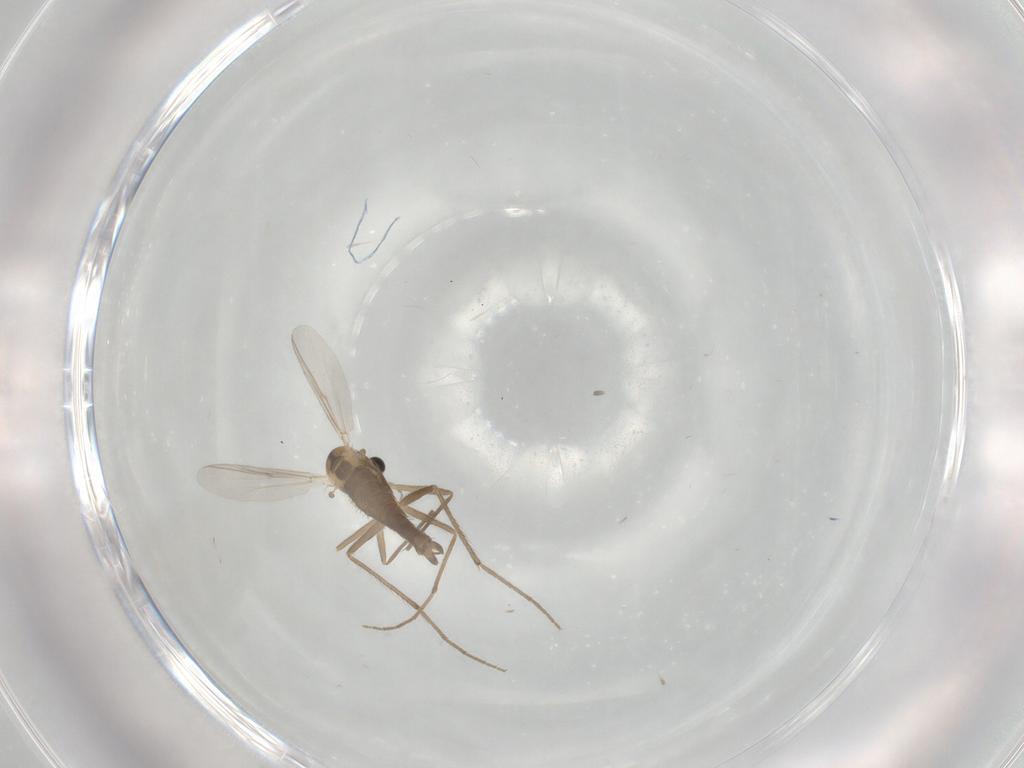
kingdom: Animalia
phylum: Arthropoda
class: Insecta
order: Diptera
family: Chironomidae
